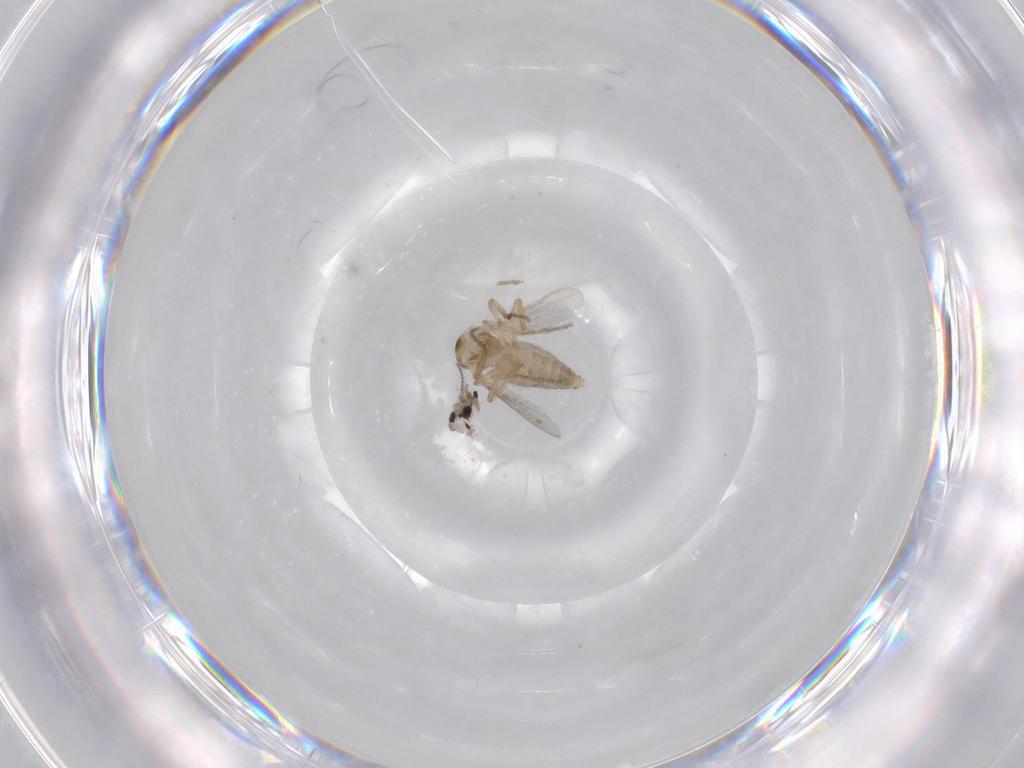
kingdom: Animalia
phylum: Arthropoda
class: Insecta
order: Diptera
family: Ceratopogonidae
